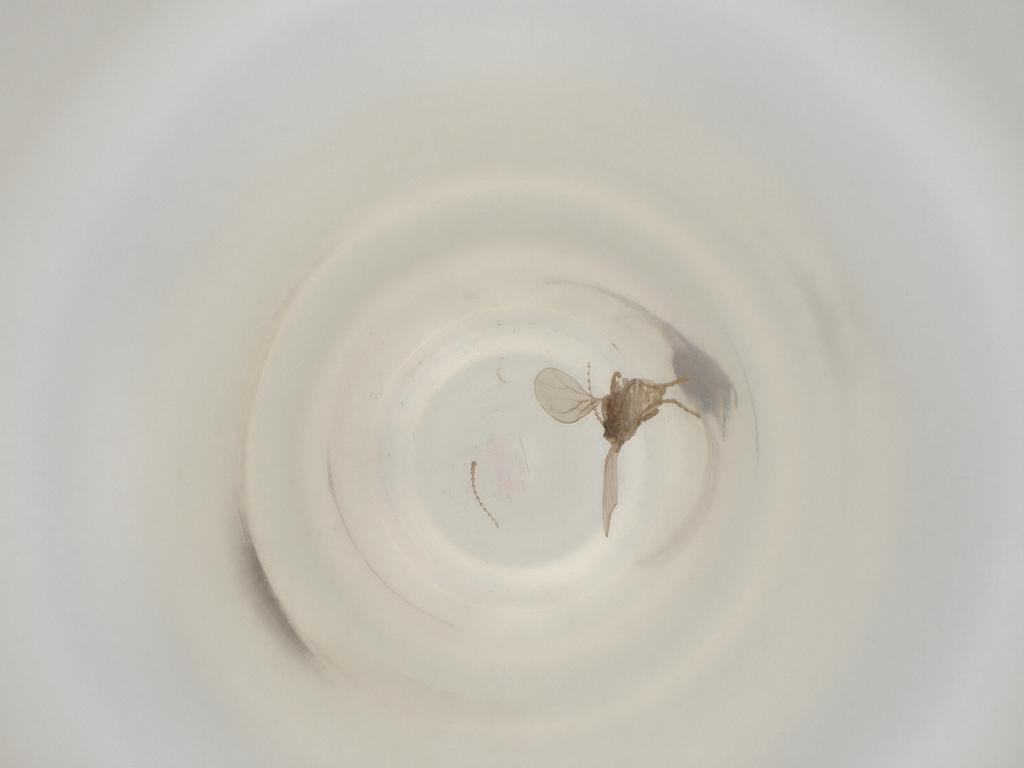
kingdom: Animalia
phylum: Arthropoda
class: Insecta
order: Diptera
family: Cecidomyiidae
